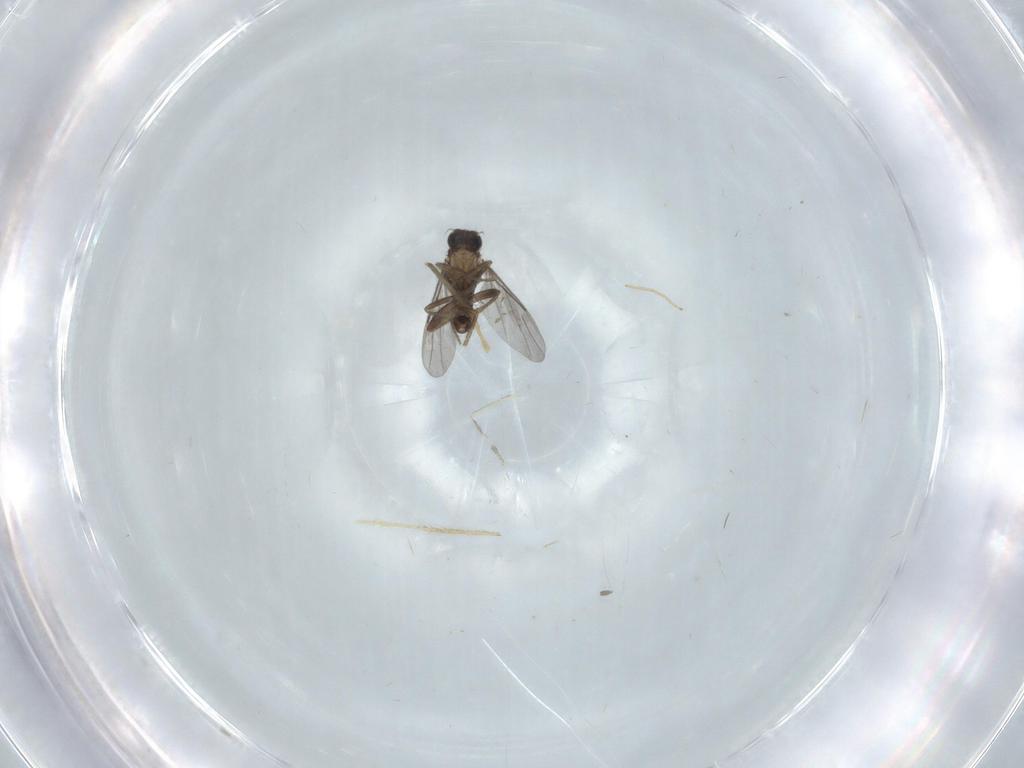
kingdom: Animalia
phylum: Arthropoda
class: Insecta
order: Diptera
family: Chironomidae
